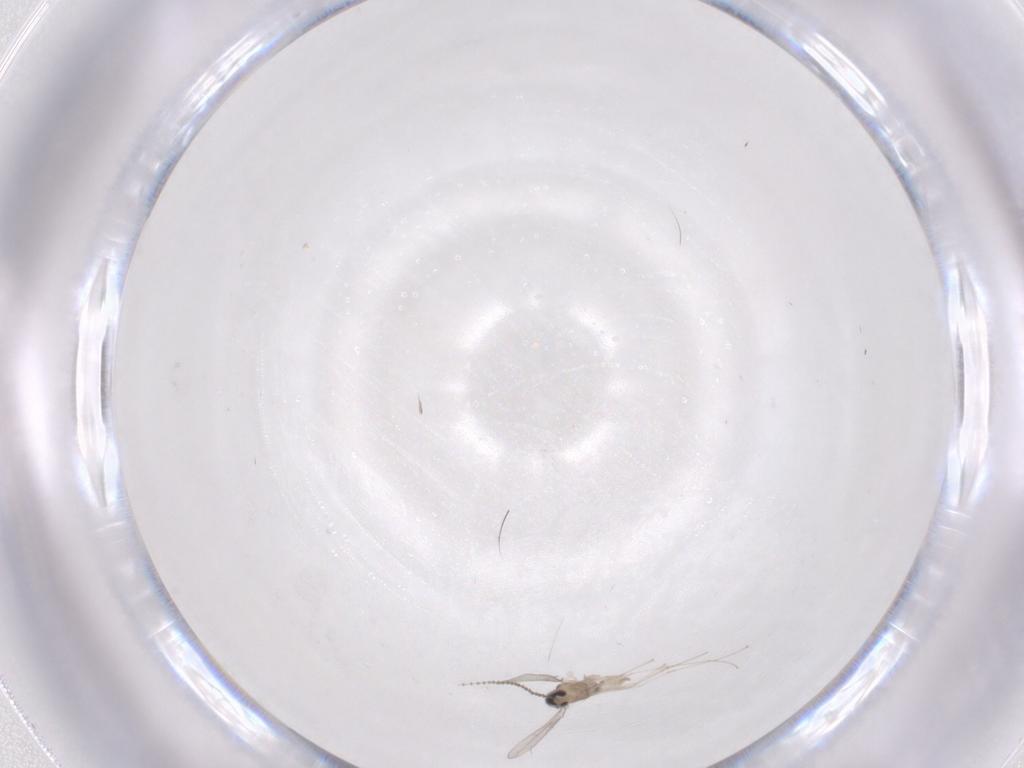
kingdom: Animalia
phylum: Arthropoda
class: Insecta
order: Diptera
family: Cecidomyiidae
